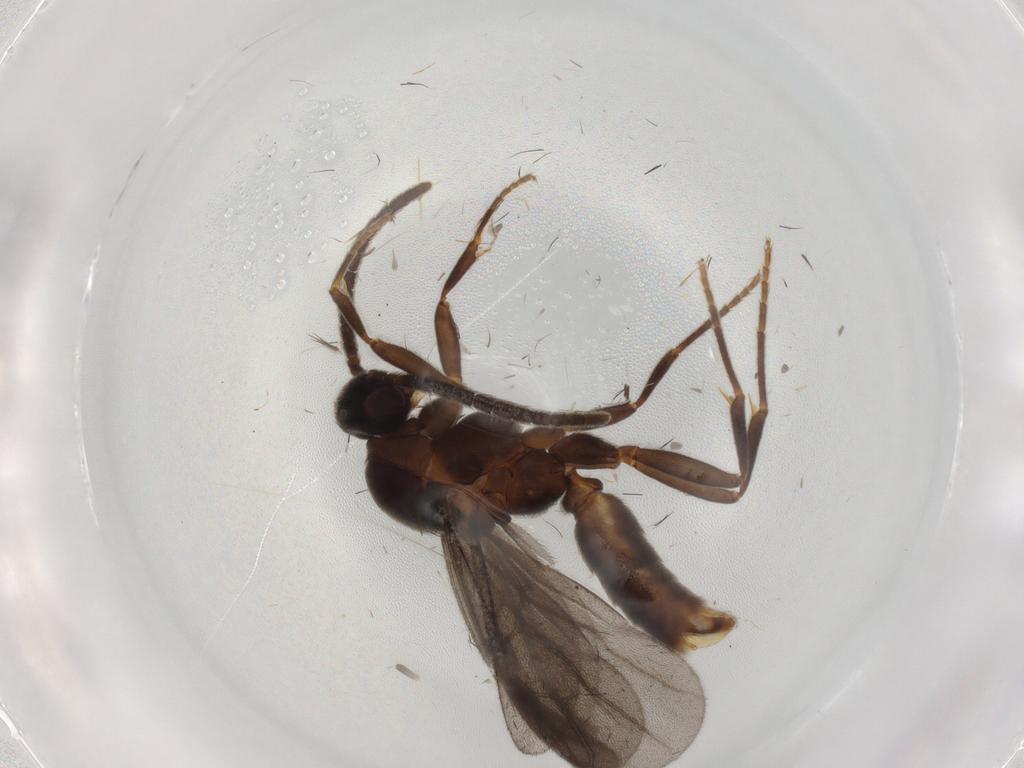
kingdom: Animalia
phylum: Arthropoda
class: Insecta
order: Hymenoptera
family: Formicidae
